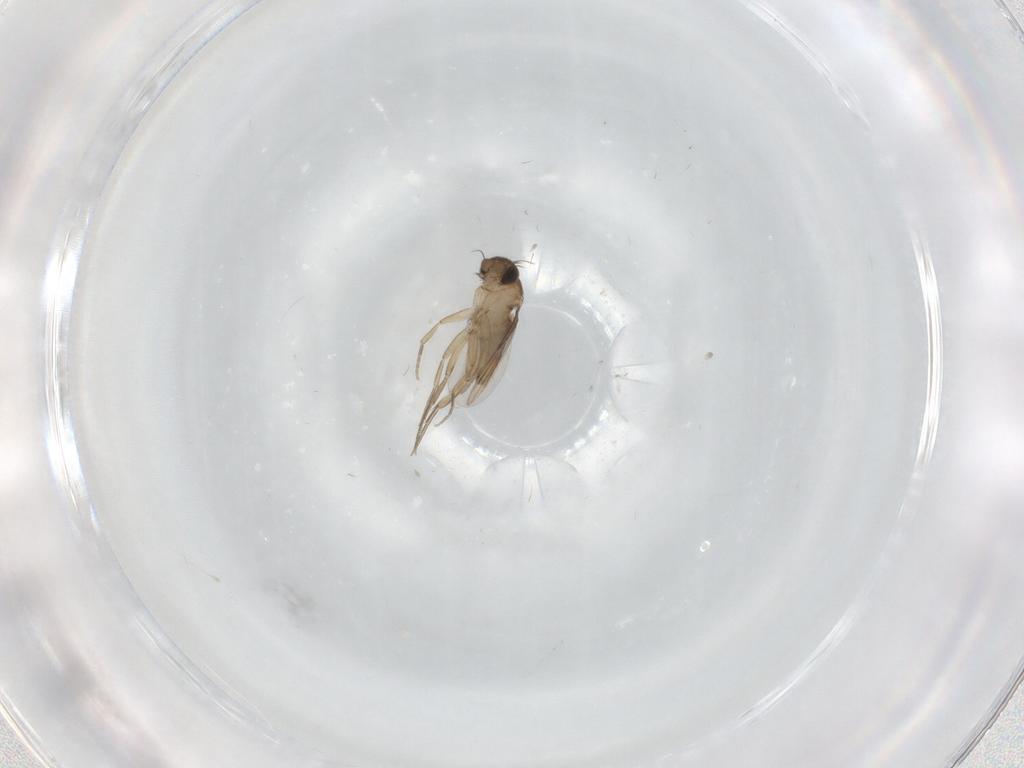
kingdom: Animalia
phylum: Arthropoda
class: Insecta
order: Diptera
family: Phoridae
